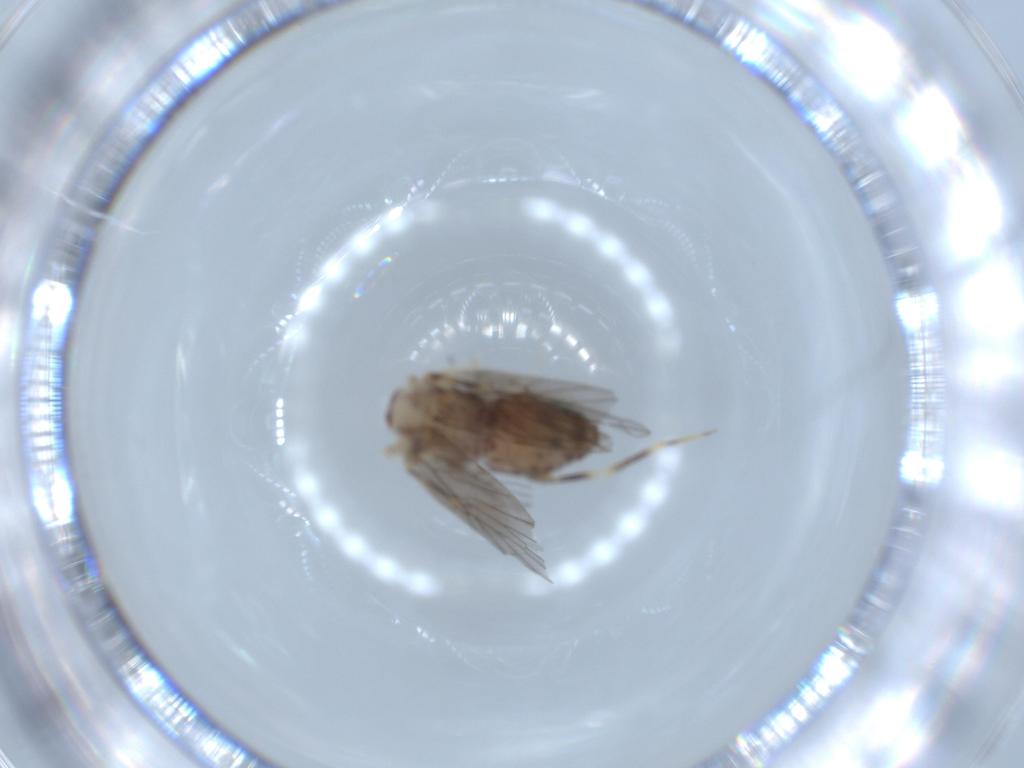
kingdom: Animalia
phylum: Arthropoda
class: Insecta
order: Psocodea
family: Lepidopsocidae
